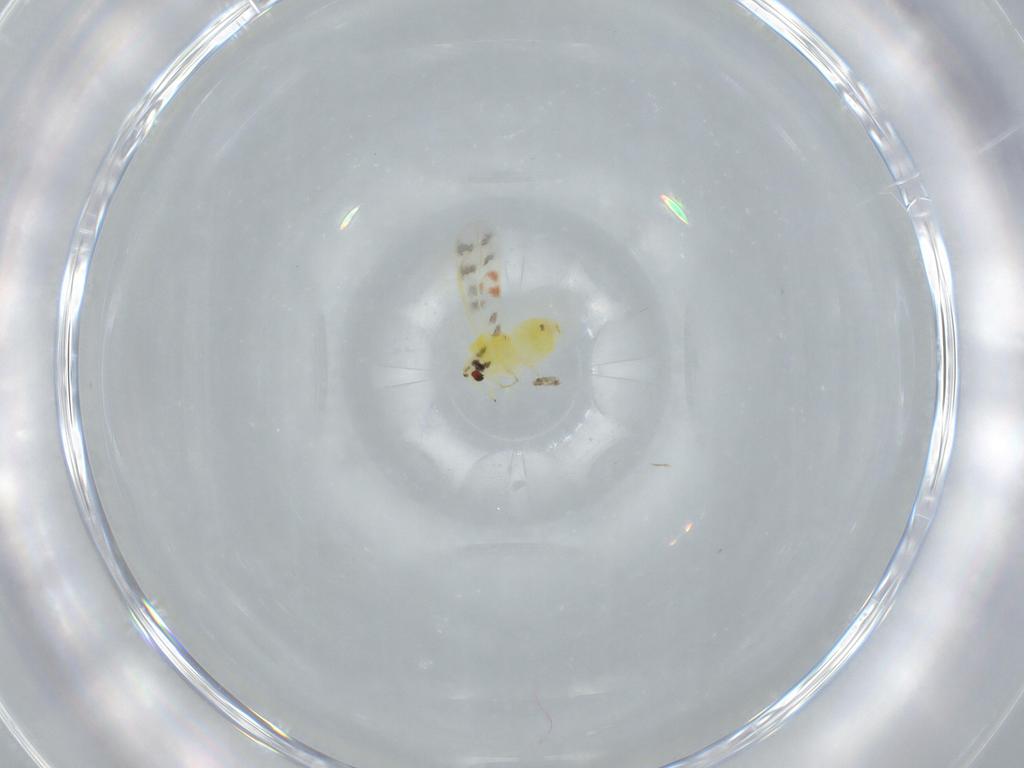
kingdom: Animalia
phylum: Arthropoda
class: Insecta
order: Hemiptera
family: Aleyrodidae
